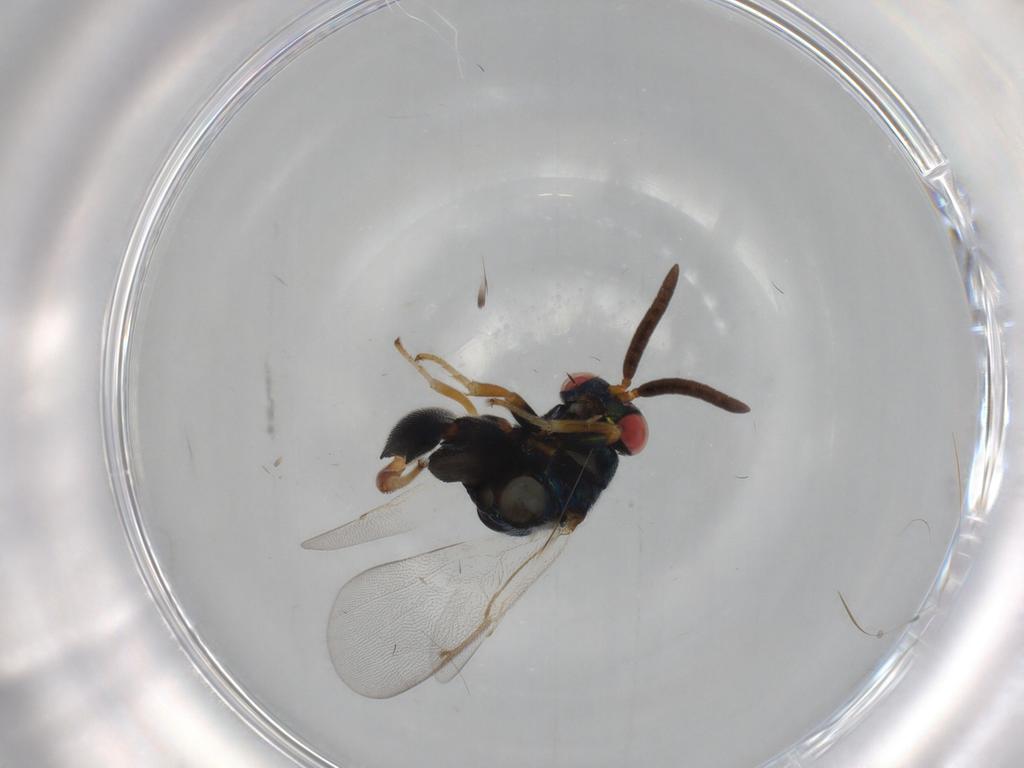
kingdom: Animalia
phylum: Arthropoda
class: Insecta
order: Hymenoptera
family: Torymidae
